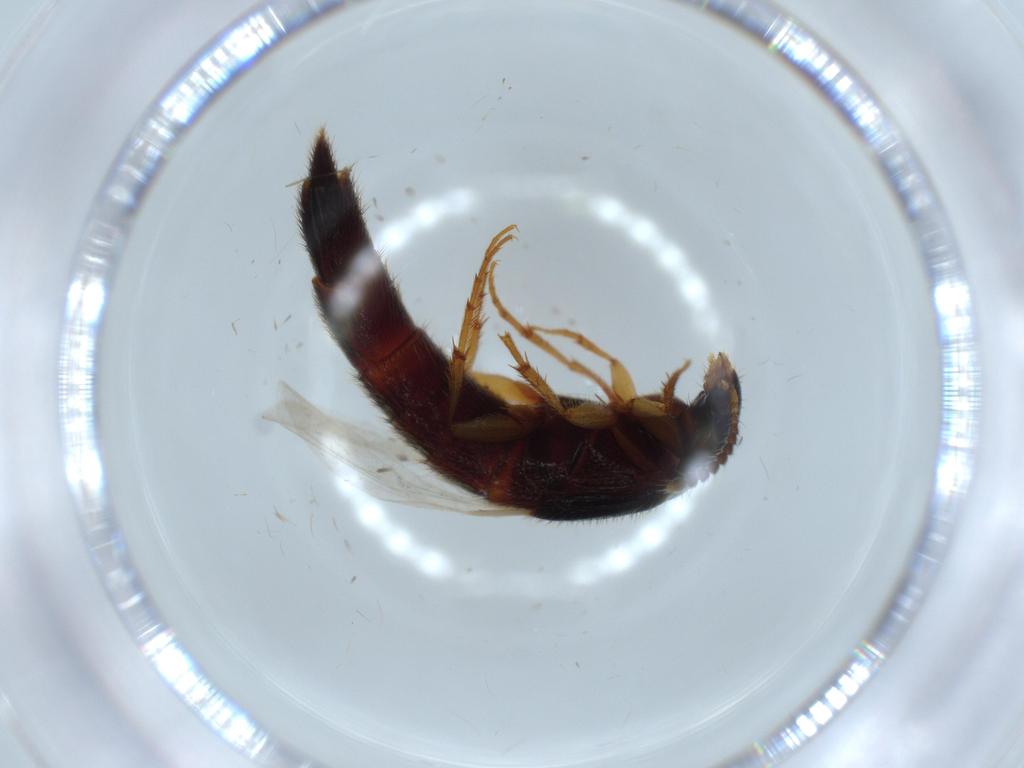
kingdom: Animalia
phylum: Arthropoda
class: Insecta
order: Coleoptera
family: Staphylinidae
